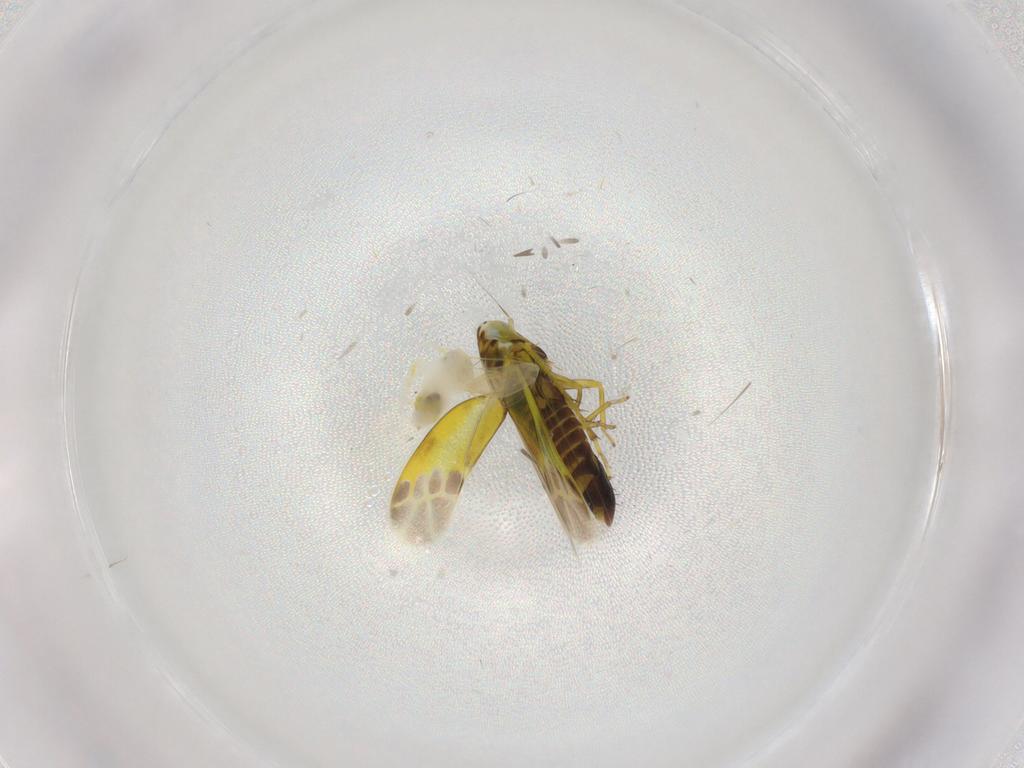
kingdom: Animalia
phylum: Arthropoda
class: Insecta
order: Hemiptera
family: Aleyrodidae
